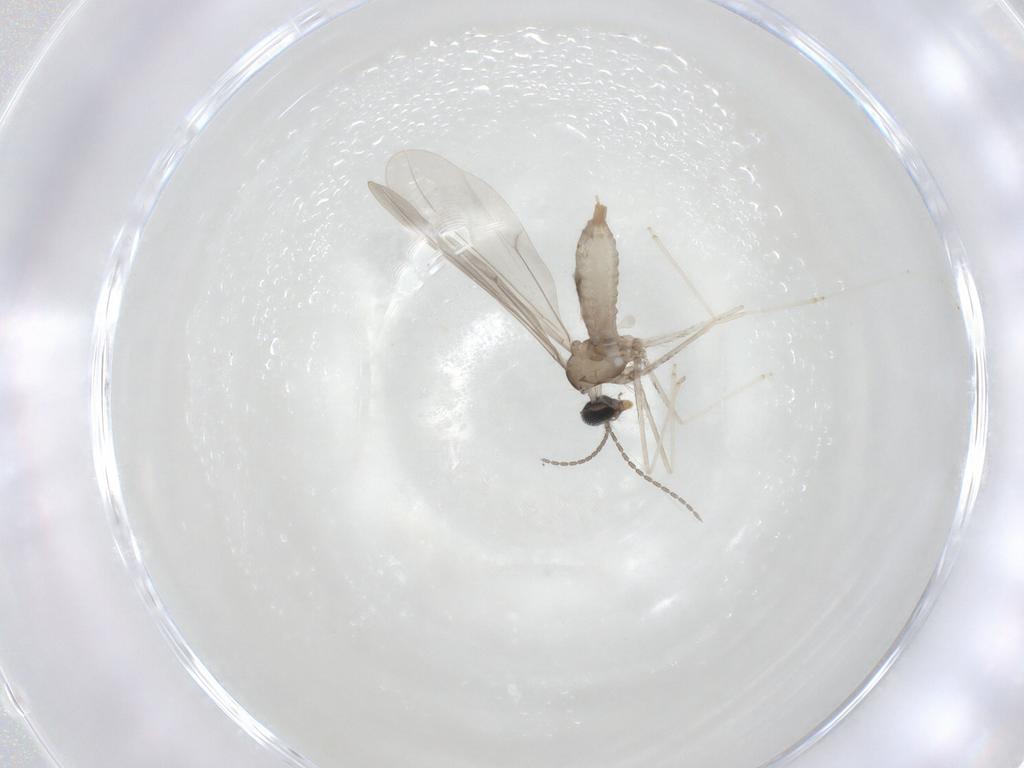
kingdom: Animalia
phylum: Arthropoda
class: Insecta
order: Diptera
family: Cecidomyiidae
